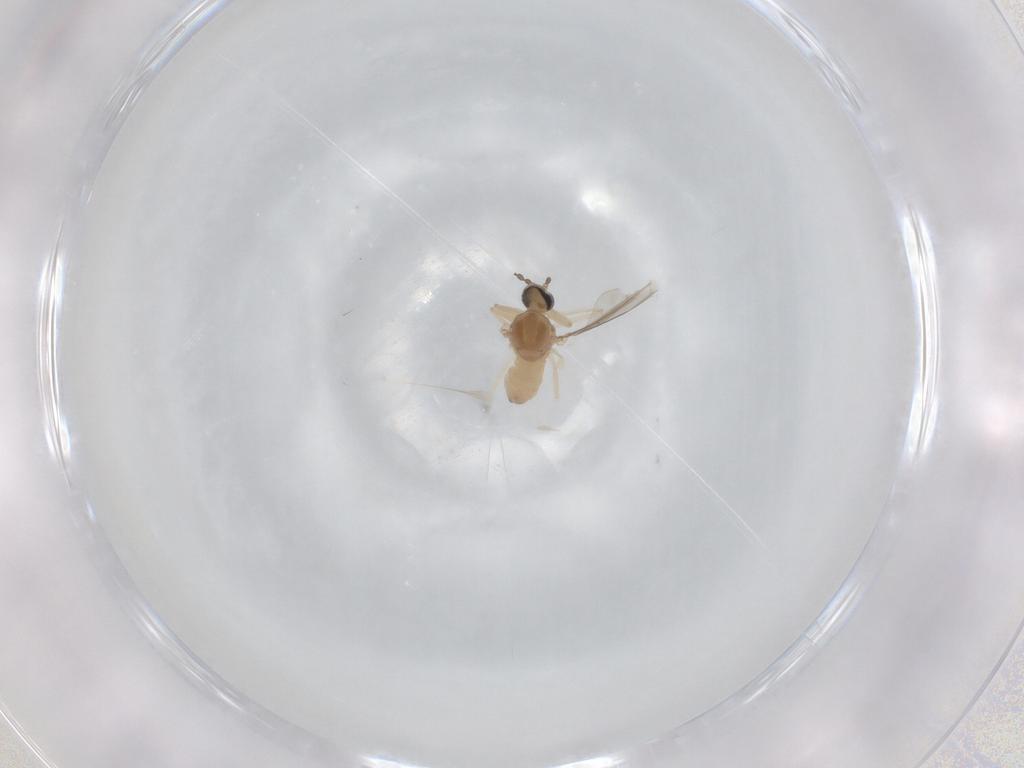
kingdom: Animalia
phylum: Arthropoda
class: Insecta
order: Diptera
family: Cecidomyiidae
